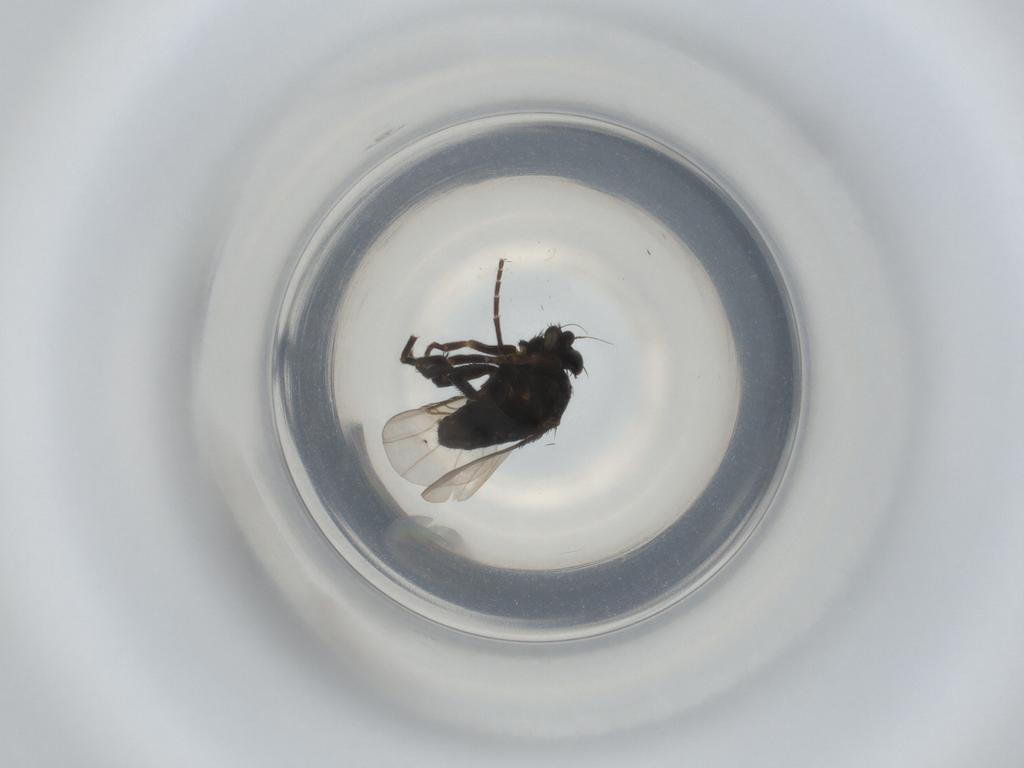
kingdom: Animalia
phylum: Arthropoda
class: Insecta
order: Diptera
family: Phoridae
